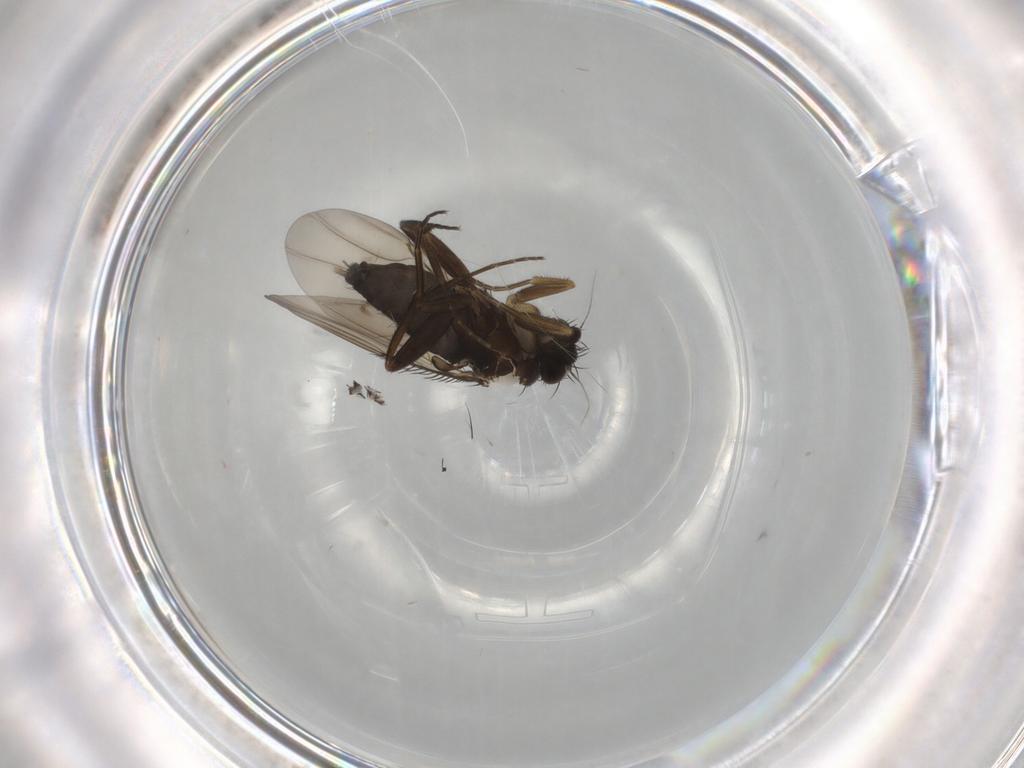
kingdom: Animalia
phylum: Arthropoda
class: Insecta
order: Diptera
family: Phoridae
